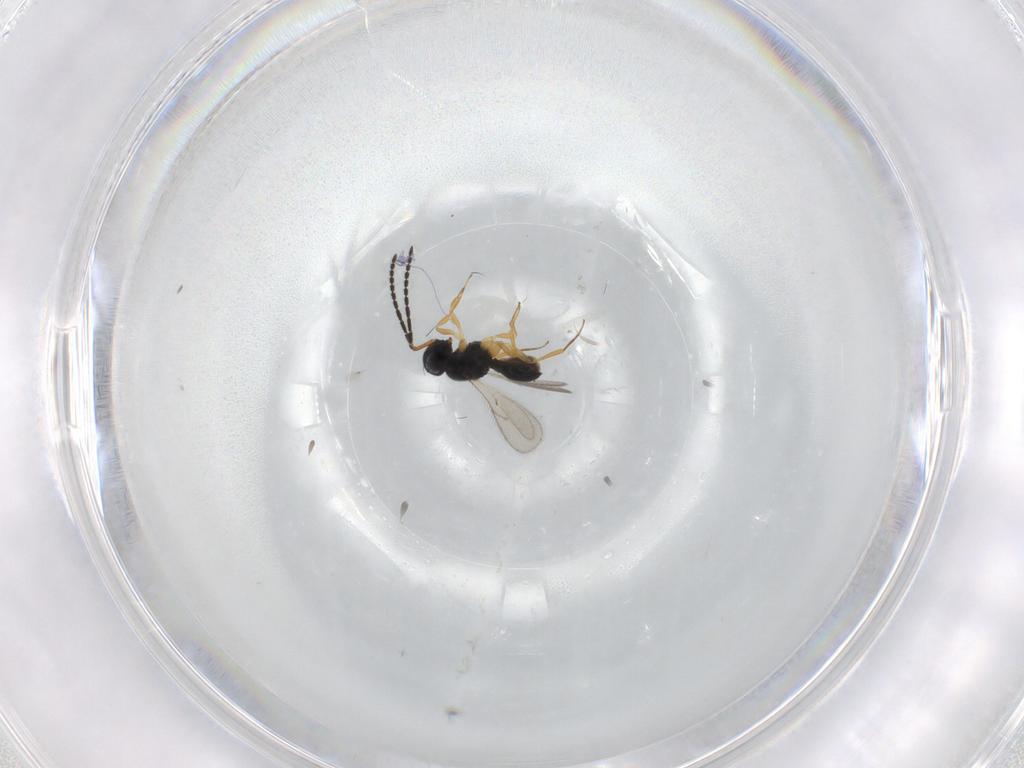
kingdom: Animalia
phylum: Arthropoda
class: Insecta
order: Hymenoptera
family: Scelionidae
